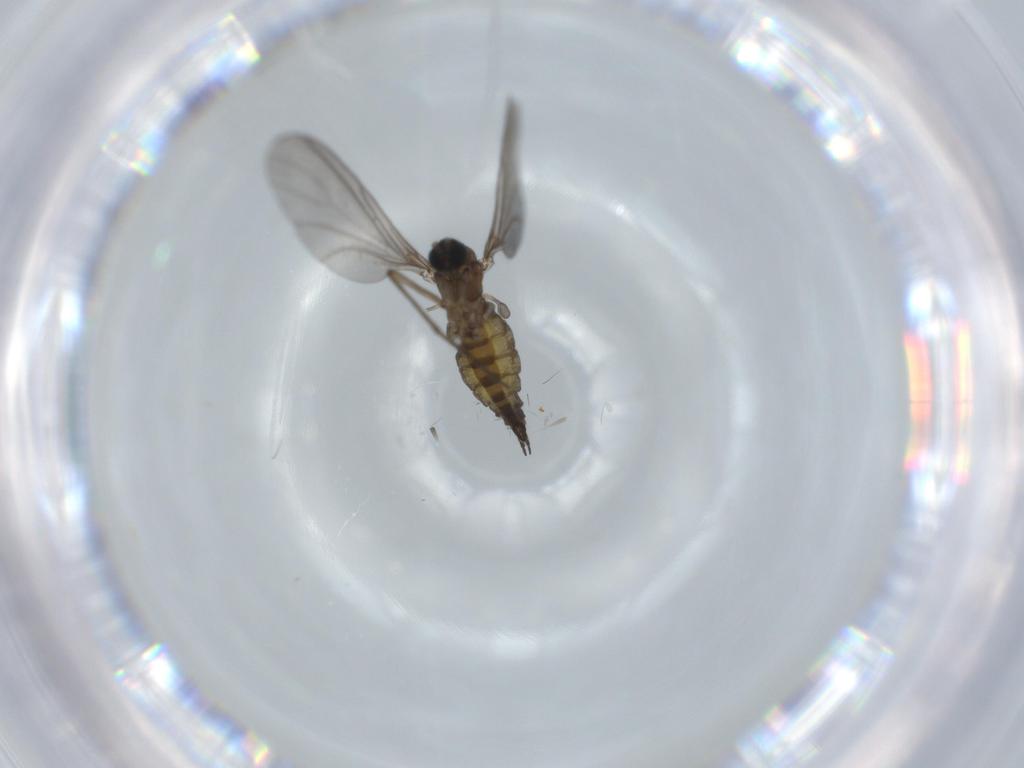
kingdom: Animalia
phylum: Arthropoda
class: Insecta
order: Diptera
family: Sciaridae
